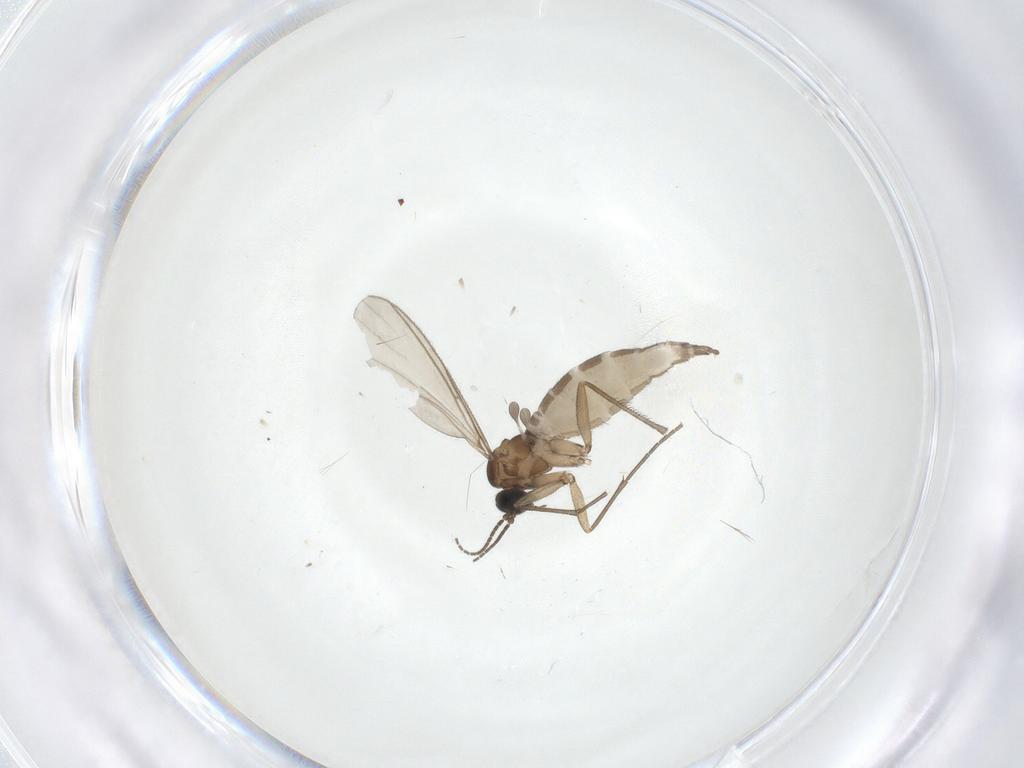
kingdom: Animalia
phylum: Arthropoda
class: Insecta
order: Diptera
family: Sciaridae
